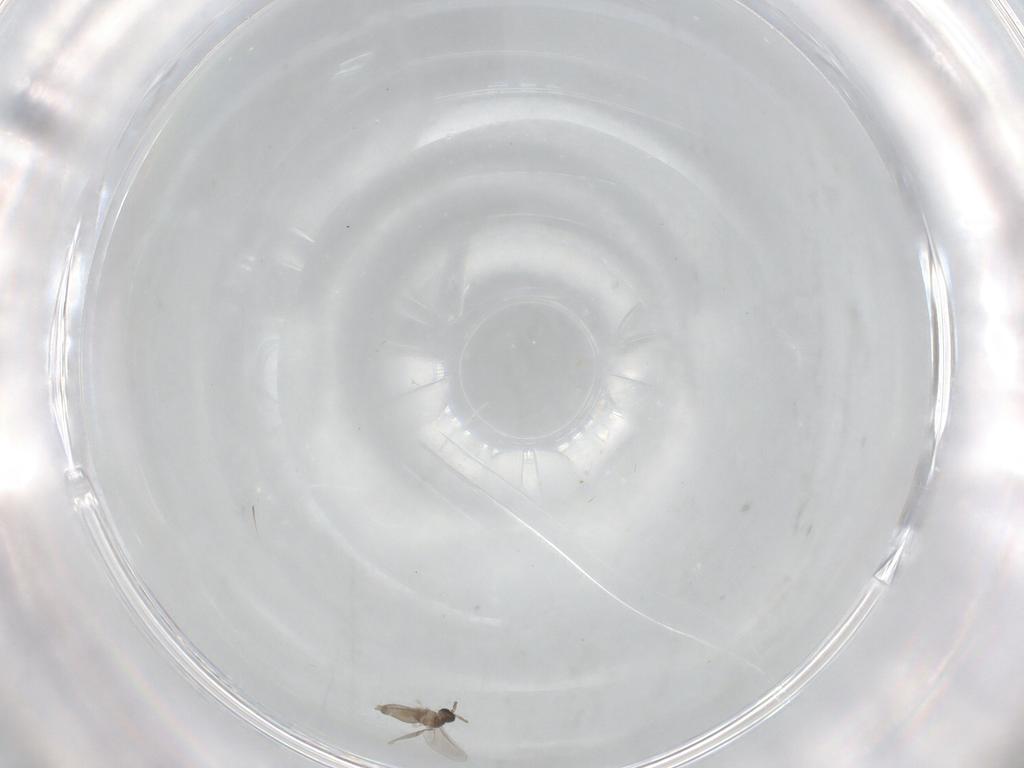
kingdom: Animalia
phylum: Arthropoda
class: Insecta
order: Diptera
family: Cecidomyiidae
